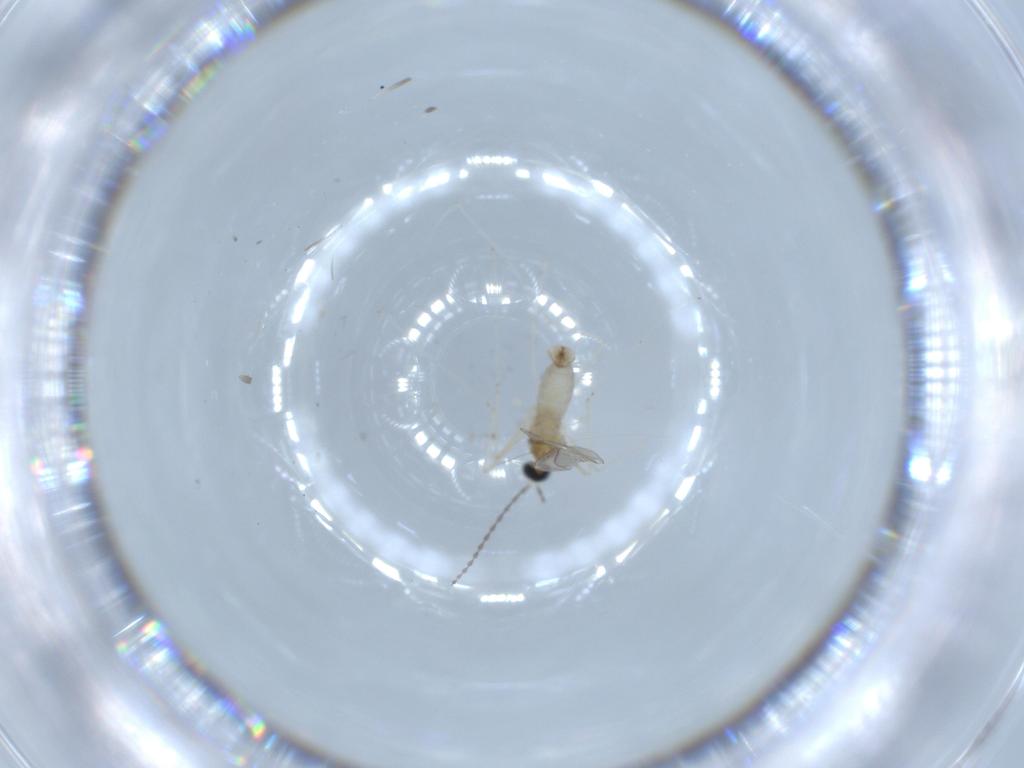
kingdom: Animalia
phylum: Arthropoda
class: Insecta
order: Diptera
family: Cecidomyiidae
